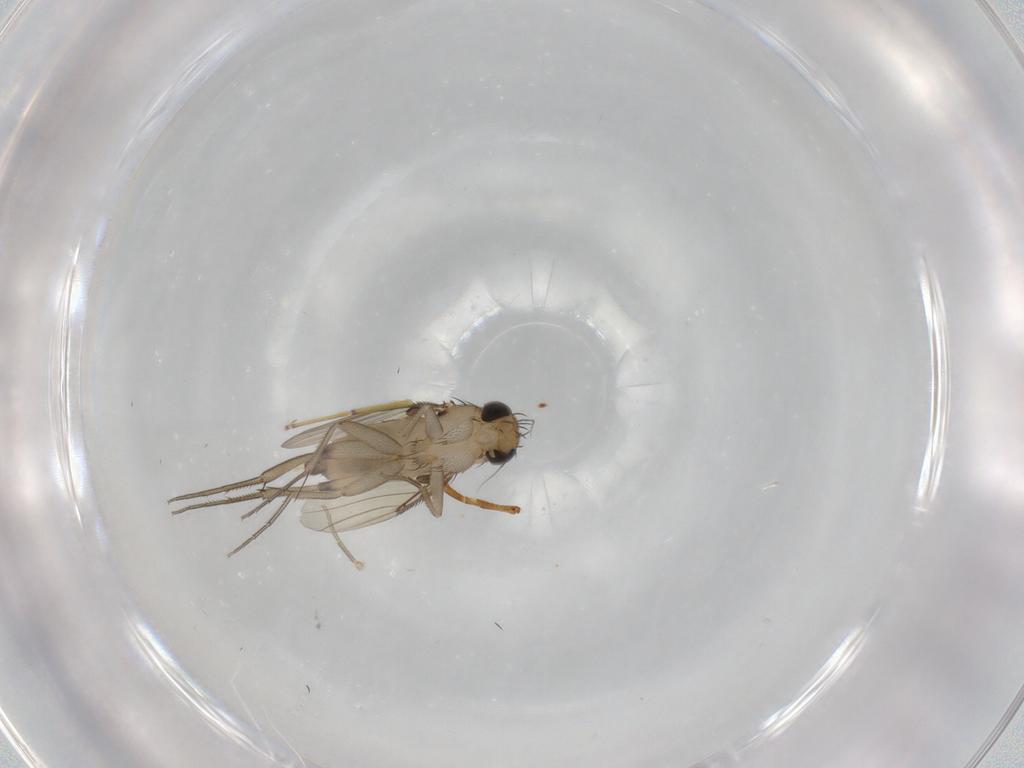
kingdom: Animalia
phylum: Arthropoda
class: Insecta
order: Diptera
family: Phoridae
